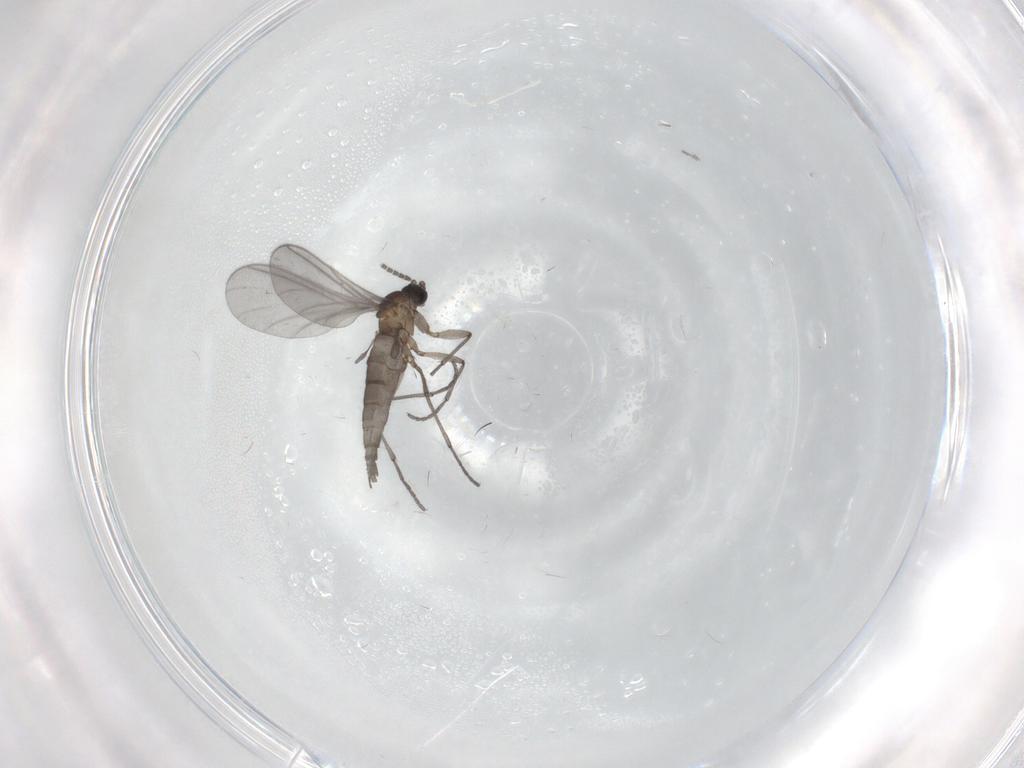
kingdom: Animalia
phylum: Arthropoda
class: Insecta
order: Diptera
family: Sciaridae
